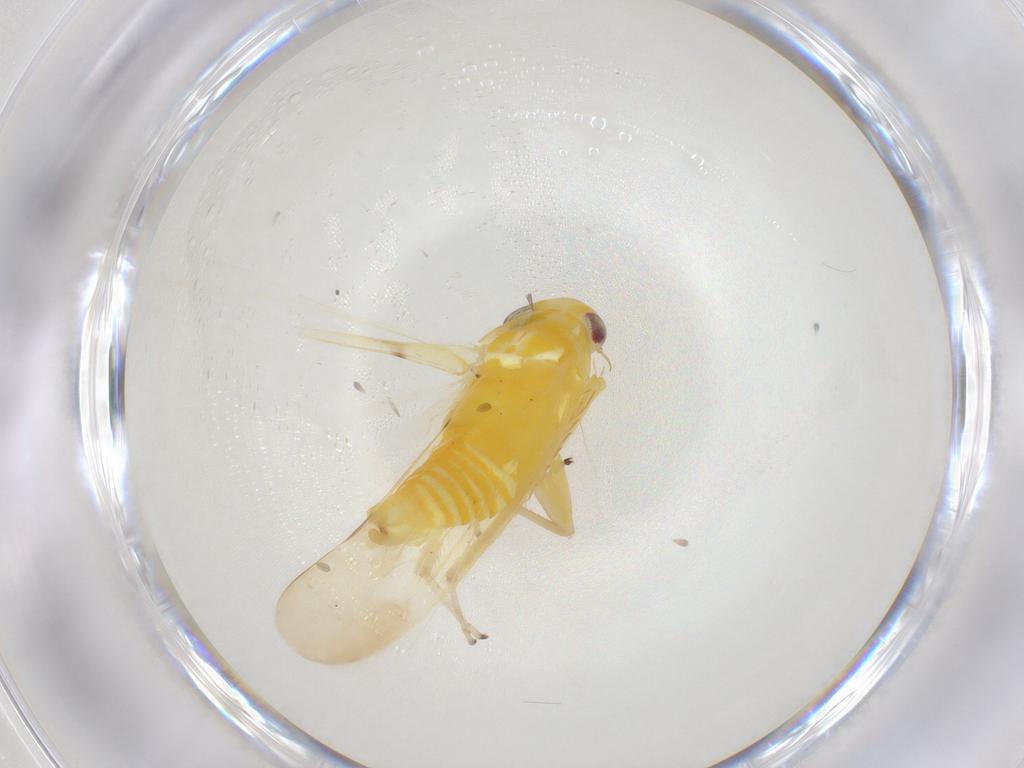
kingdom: Animalia
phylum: Arthropoda
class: Insecta
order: Hemiptera
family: Cicadellidae
